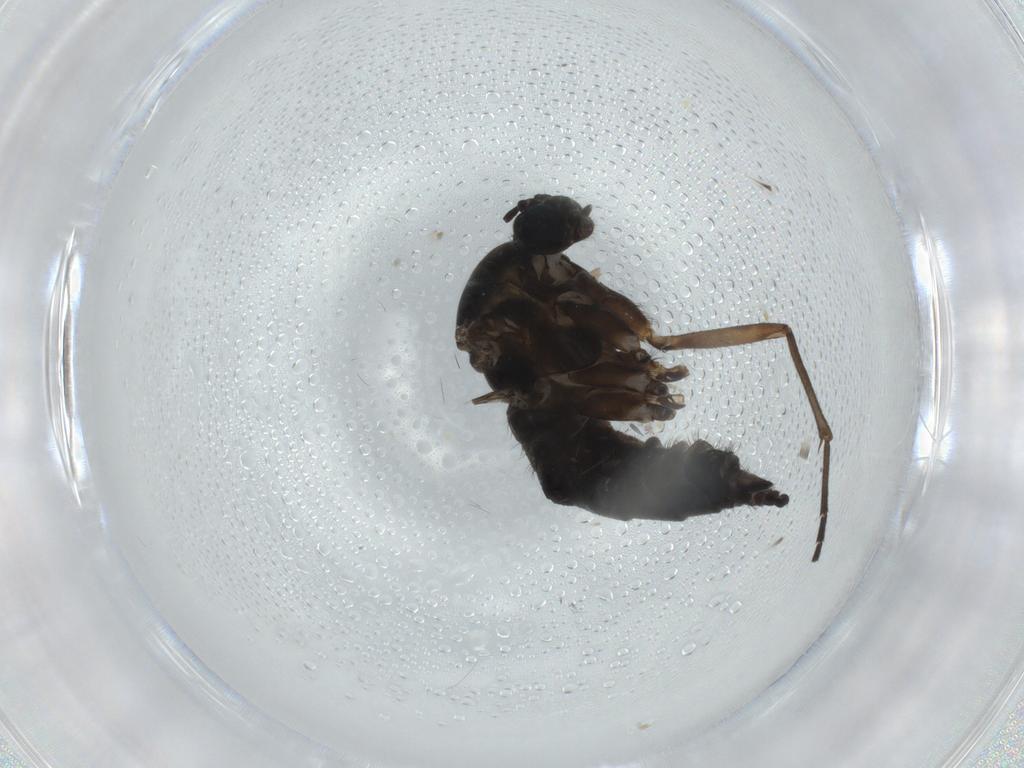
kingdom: Animalia
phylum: Arthropoda
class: Insecta
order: Diptera
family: Sciaridae
